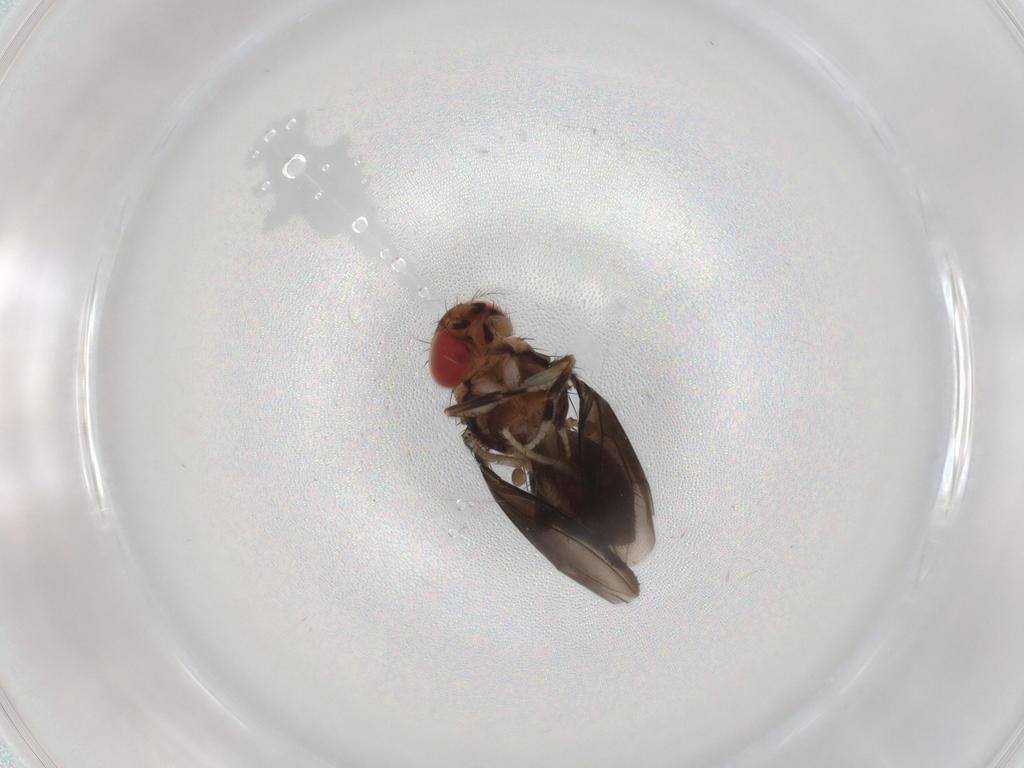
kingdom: Animalia
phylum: Arthropoda
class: Insecta
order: Diptera
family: Drosophilidae
